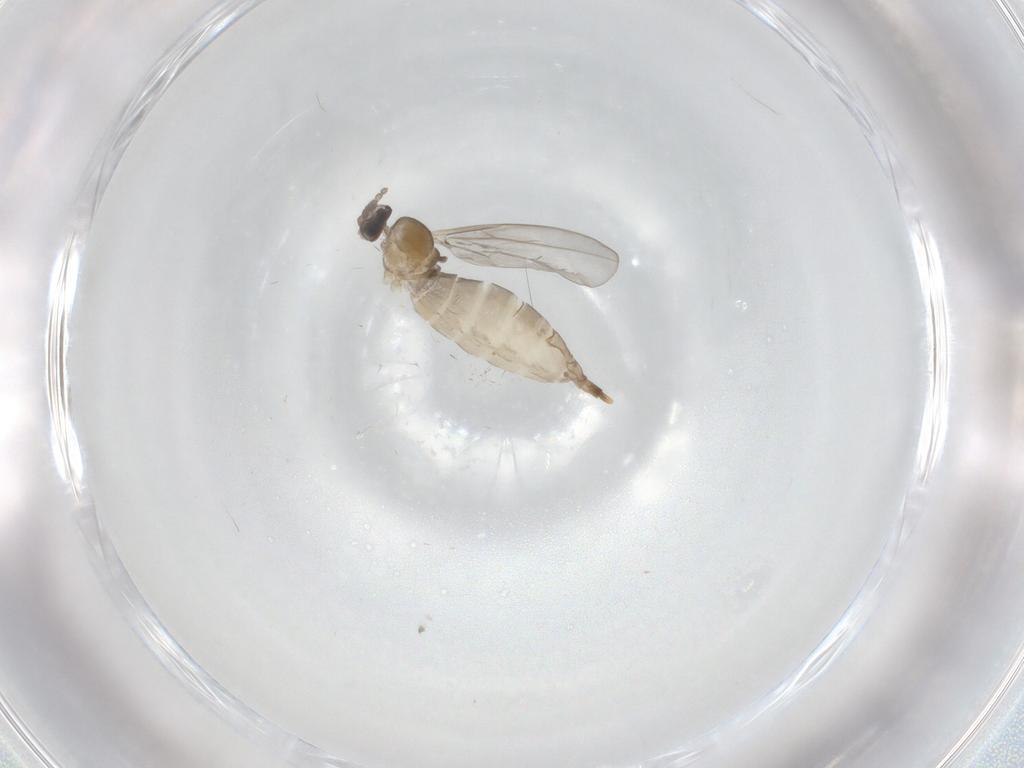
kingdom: Animalia
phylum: Arthropoda
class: Insecta
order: Diptera
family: Cecidomyiidae
